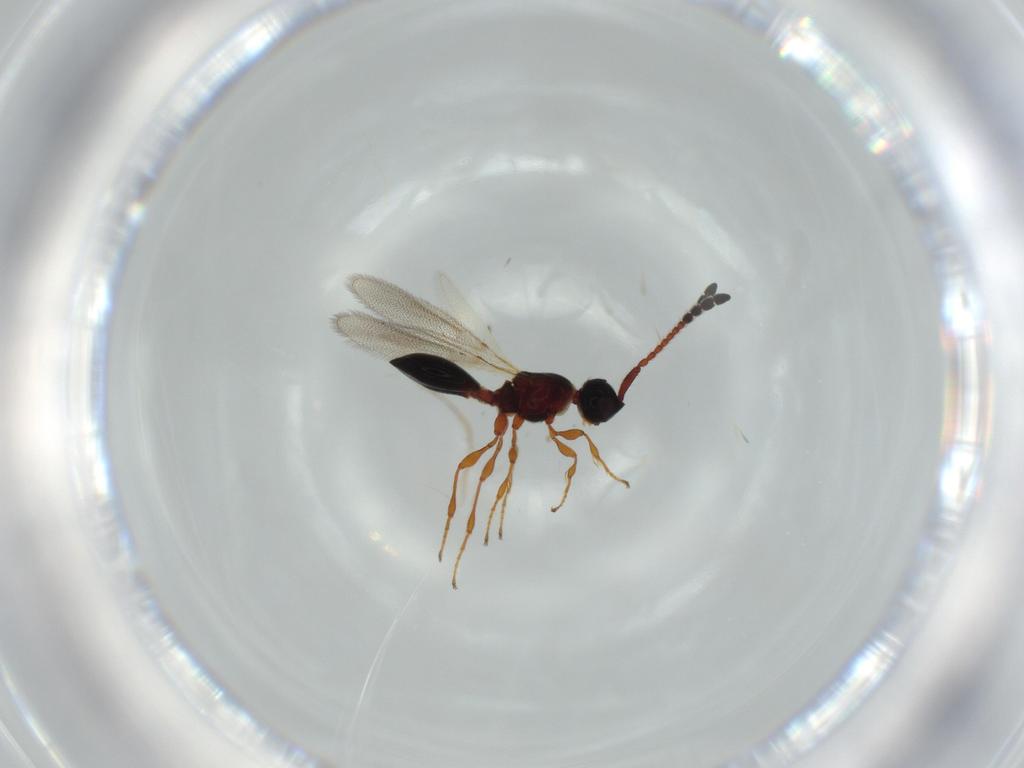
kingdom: Animalia
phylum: Arthropoda
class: Insecta
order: Hymenoptera
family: Diapriidae
